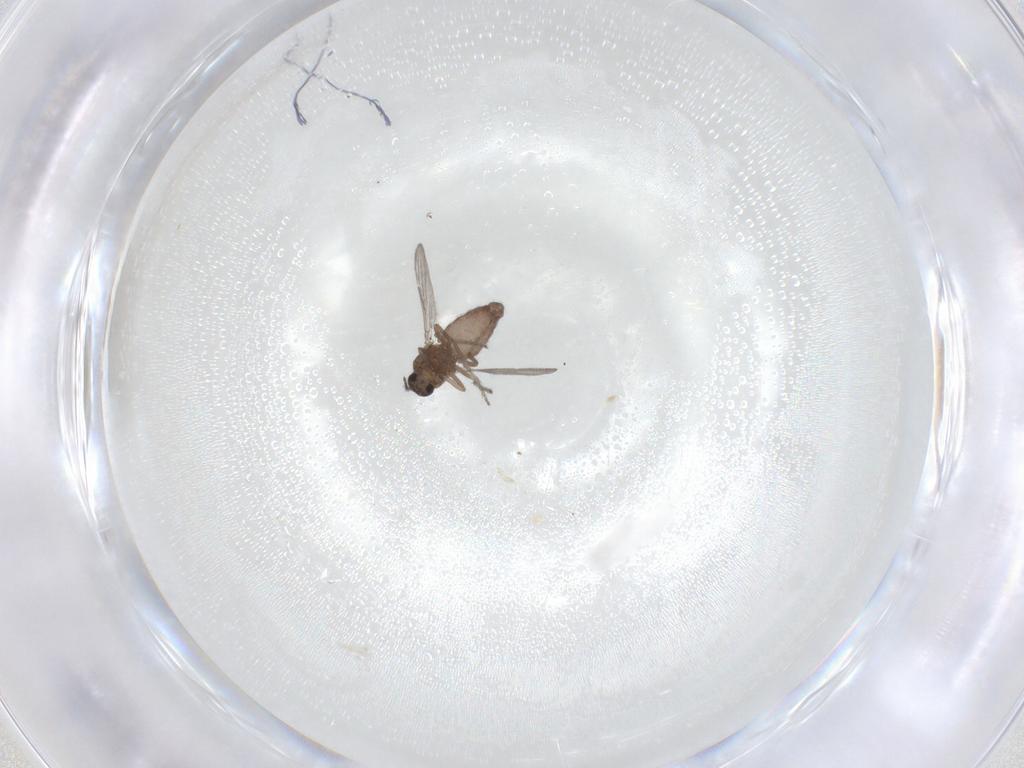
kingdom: Animalia
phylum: Arthropoda
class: Insecta
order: Diptera
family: Ceratopogonidae
